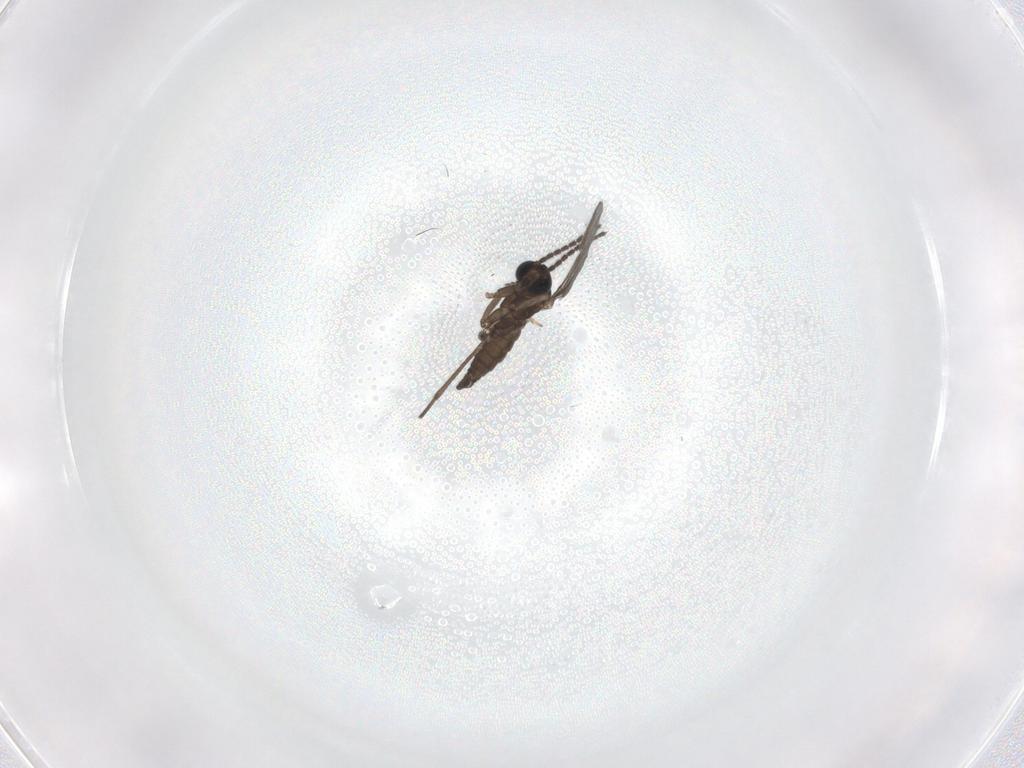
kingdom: Animalia
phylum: Arthropoda
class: Insecta
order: Diptera
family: Sciaridae
